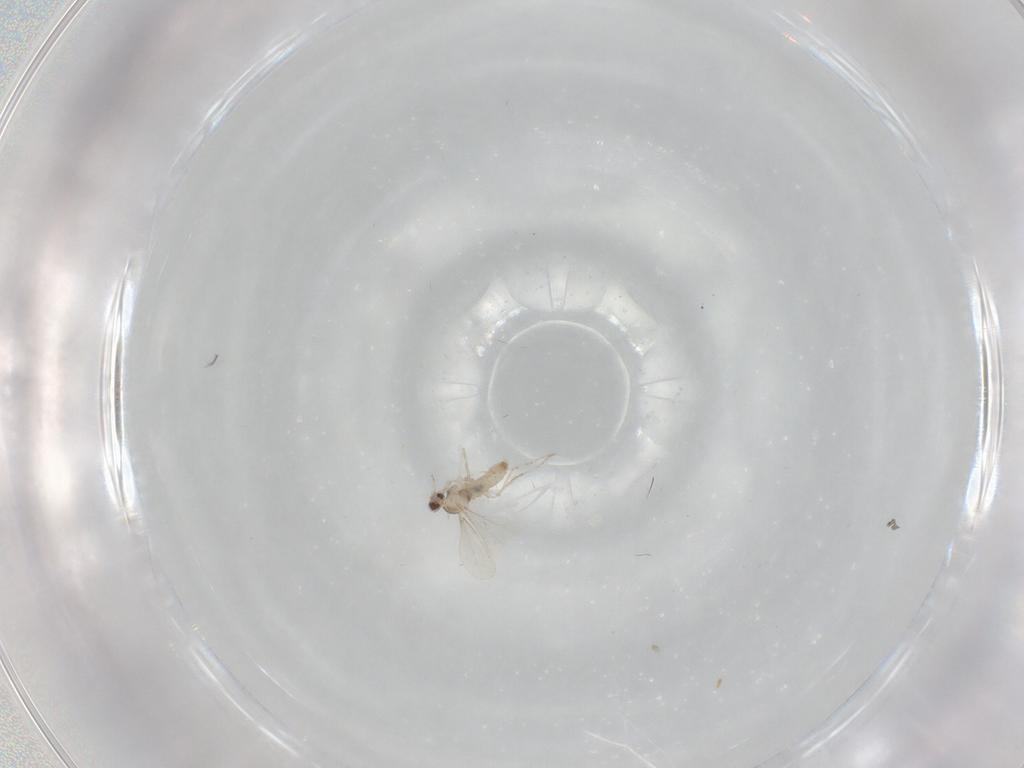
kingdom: Animalia
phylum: Arthropoda
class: Insecta
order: Diptera
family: Cecidomyiidae
